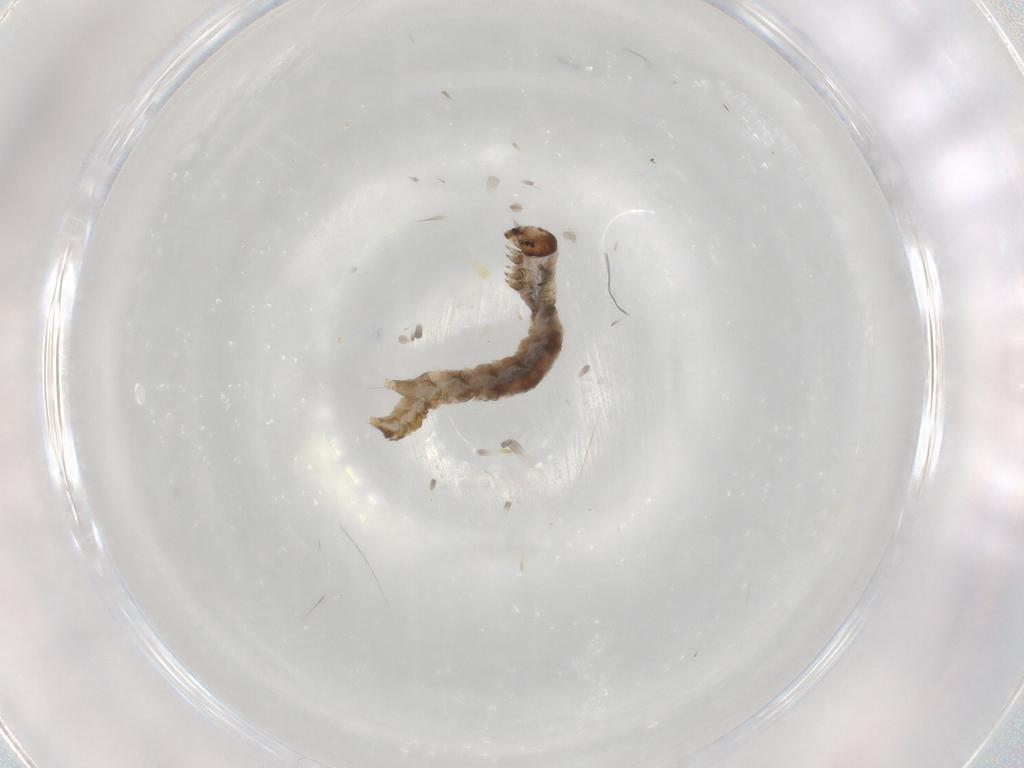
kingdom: Animalia
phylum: Arthropoda
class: Insecta
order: Lepidoptera
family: Geometridae
